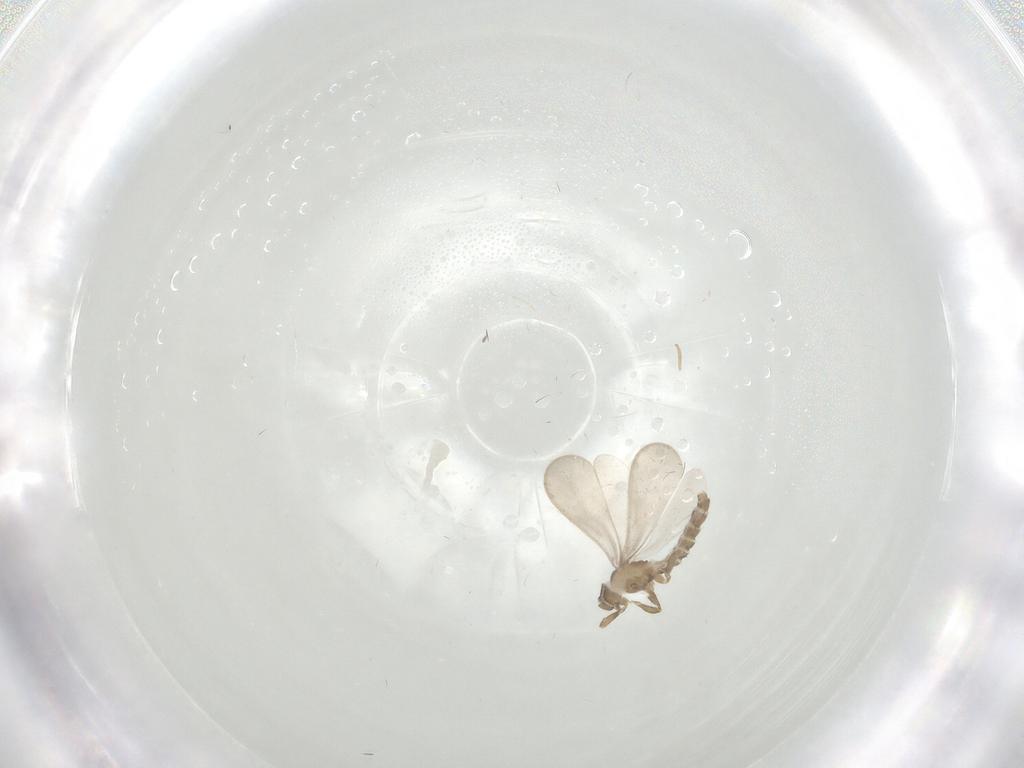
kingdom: Animalia
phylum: Arthropoda
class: Insecta
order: Hemiptera
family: Enicocephalidae
